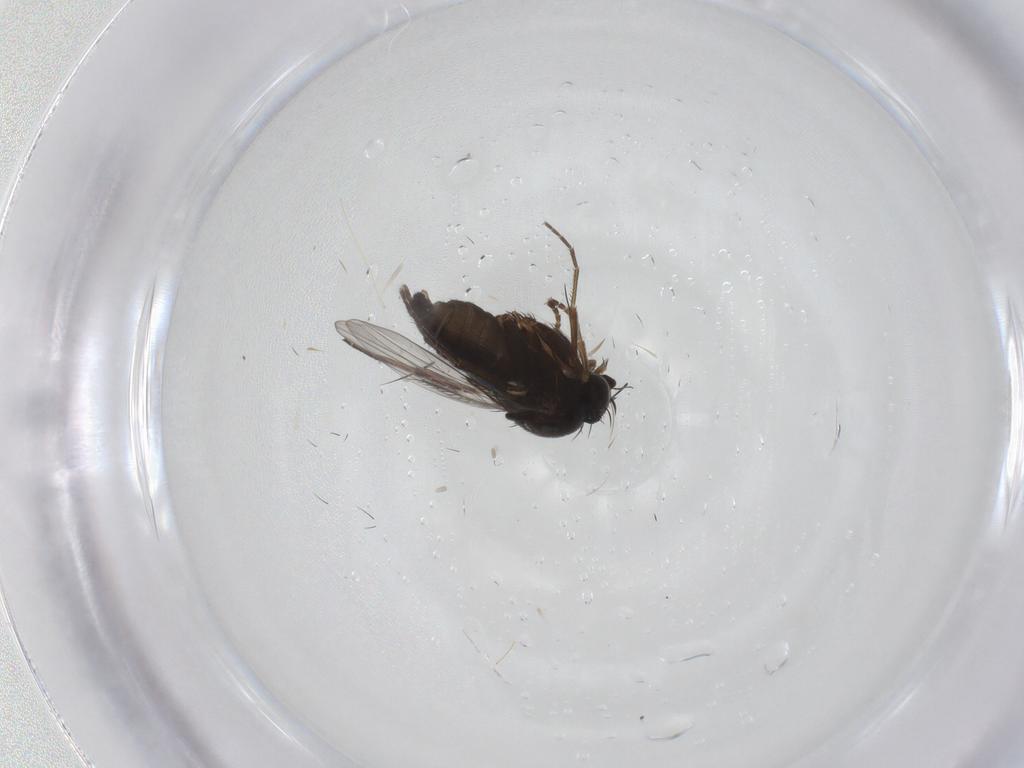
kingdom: Animalia
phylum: Arthropoda
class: Insecta
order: Diptera
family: Phoridae
